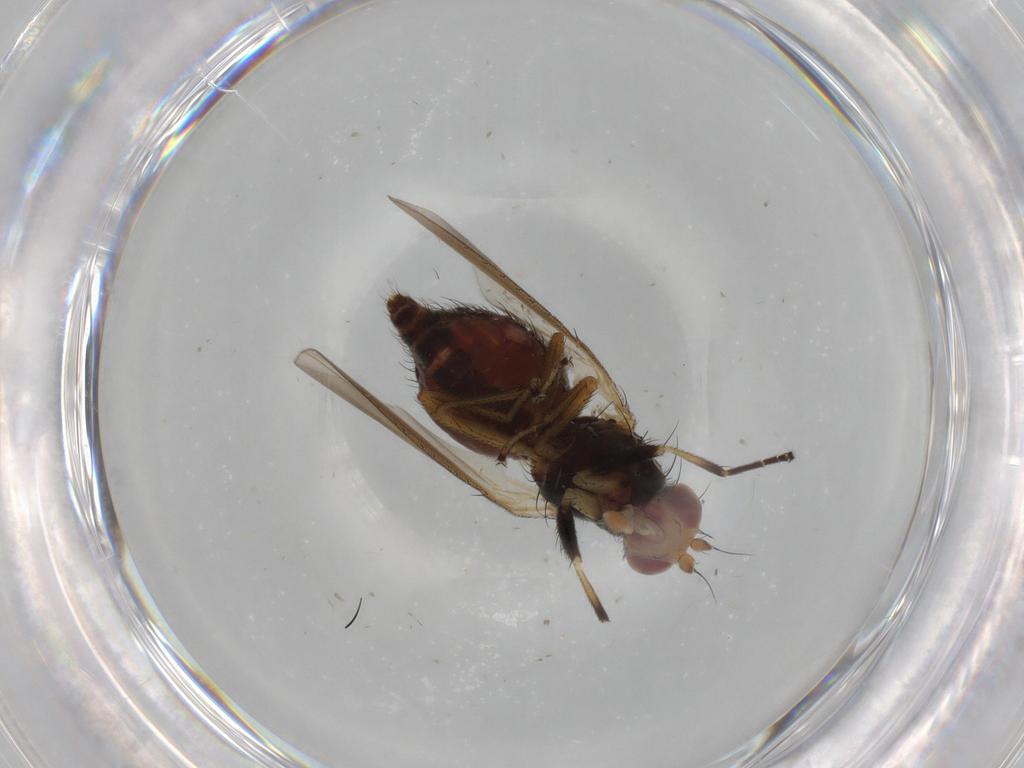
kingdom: Animalia
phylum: Arthropoda
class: Insecta
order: Diptera
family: Ulidiidae
